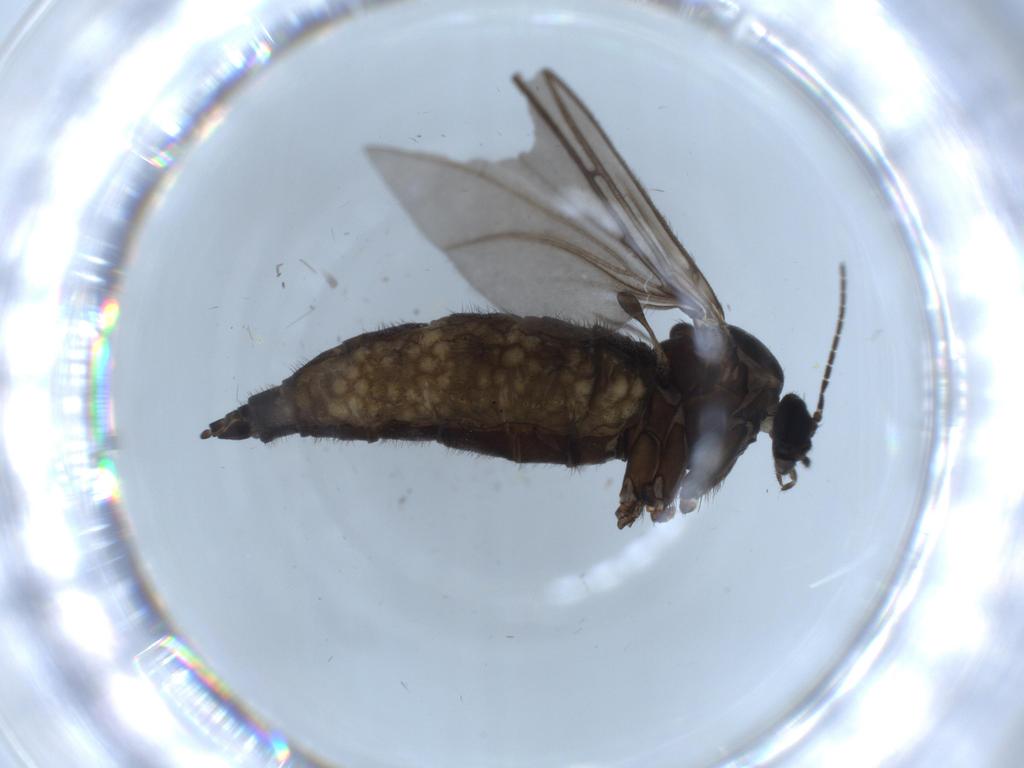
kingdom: Animalia
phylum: Arthropoda
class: Insecta
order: Diptera
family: Sciaridae
